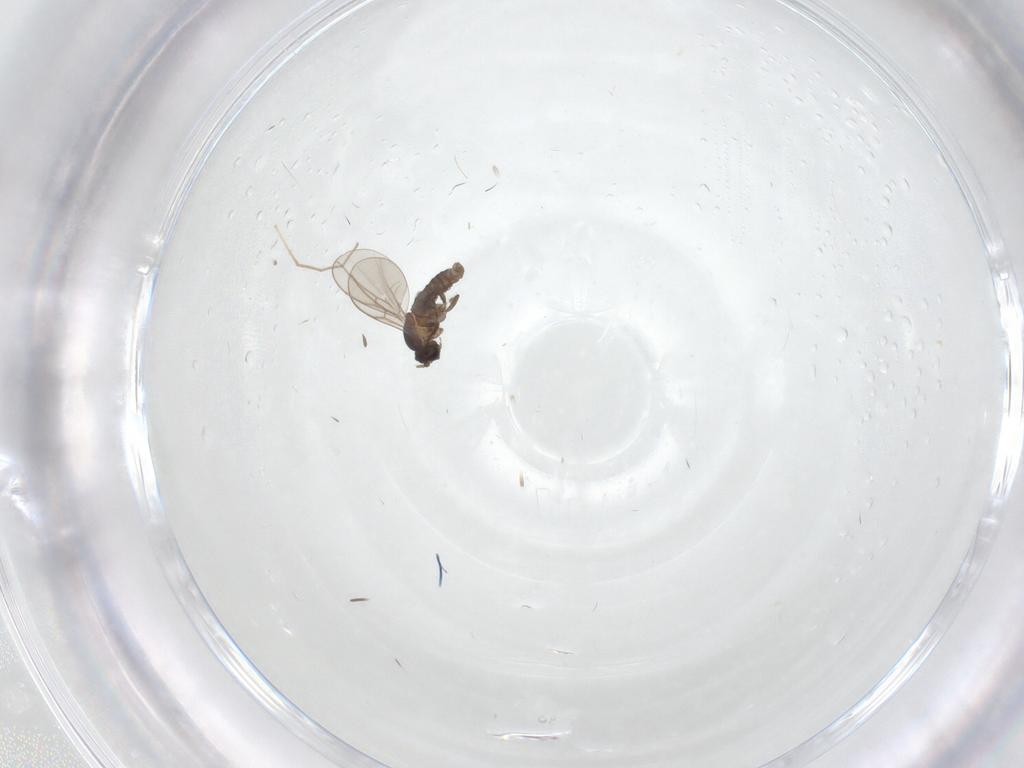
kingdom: Animalia
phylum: Arthropoda
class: Insecta
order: Diptera
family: Cecidomyiidae
